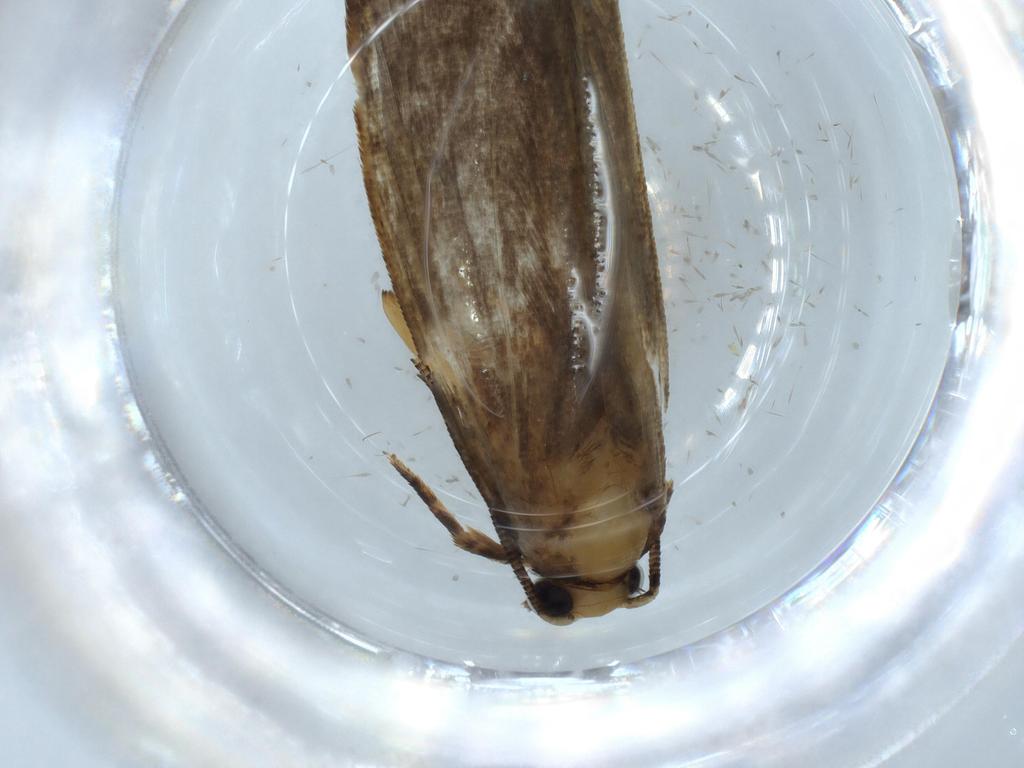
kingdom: Animalia
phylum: Arthropoda
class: Insecta
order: Lepidoptera
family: Tineidae
